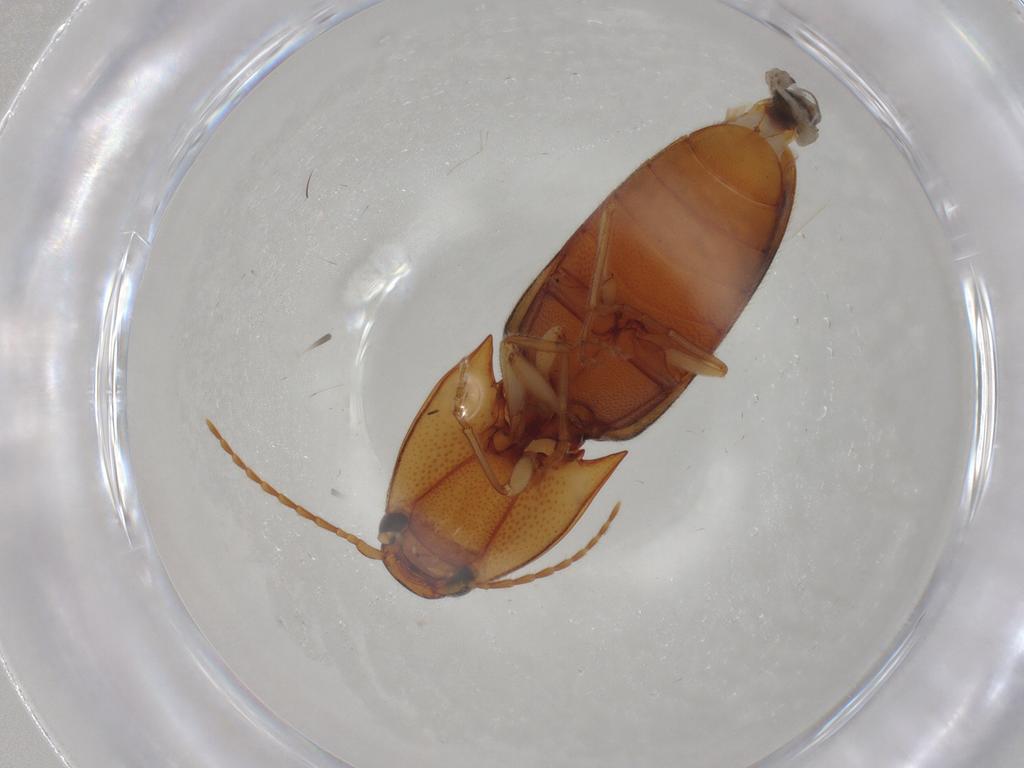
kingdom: Animalia
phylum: Arthropoda
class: Insecta
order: Coleoptera
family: Elateridae
